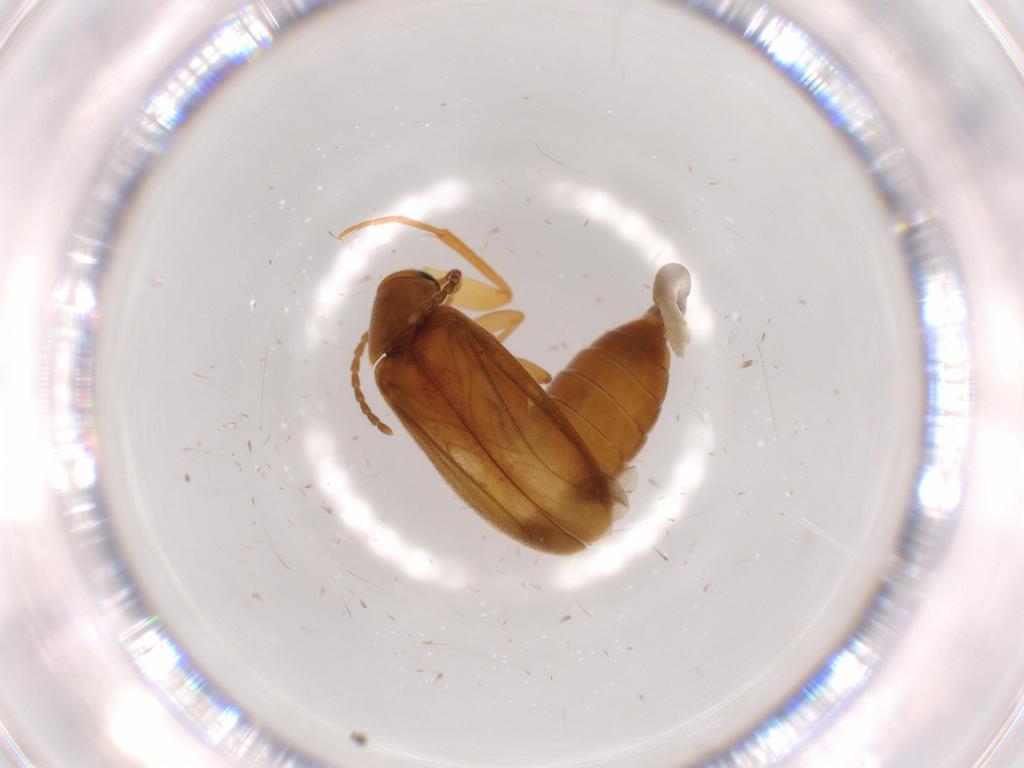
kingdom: Animalia
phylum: Arthropoda
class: Insecta
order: Coleoptera
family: Scraptiidae
